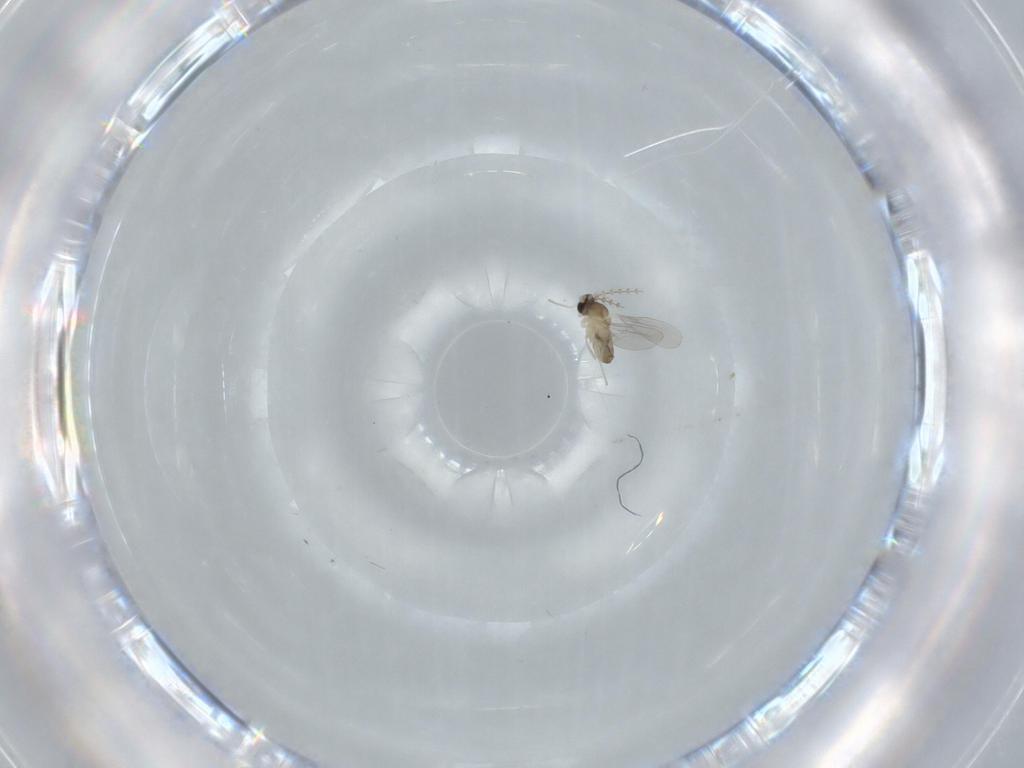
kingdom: Animalia
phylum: Arthropoda
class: Insecta
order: Diptera
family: Cecidomyiidae
